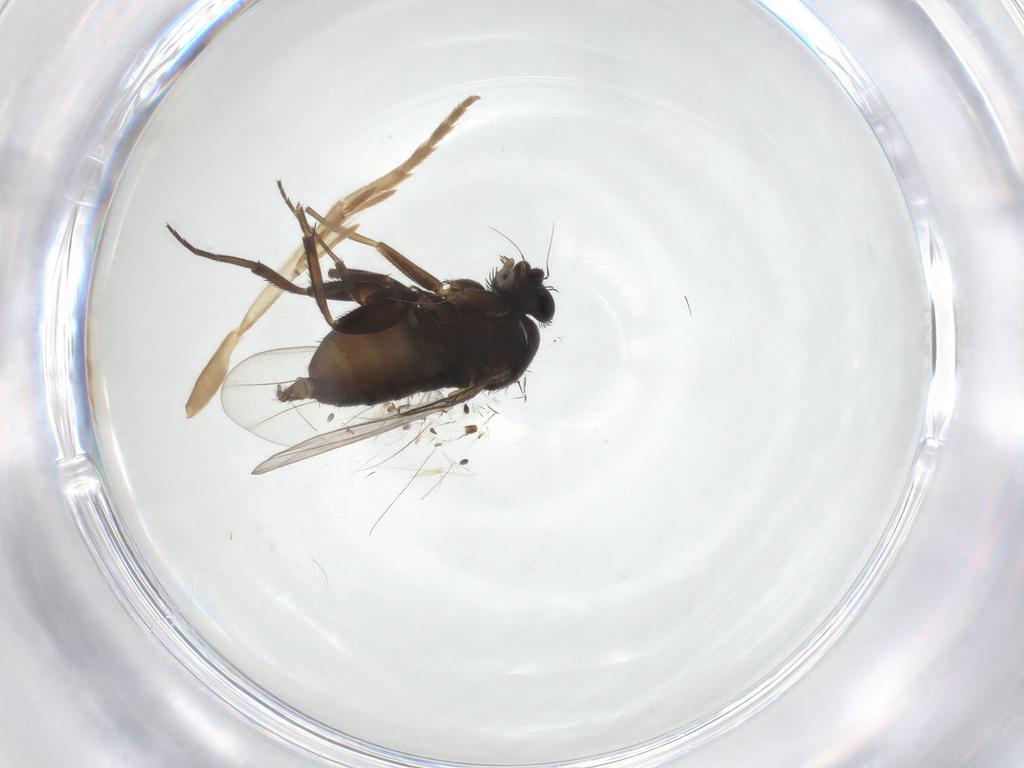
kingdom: Animalia
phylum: Arthropoda
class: Insecta
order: Diptera
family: Phoridae
